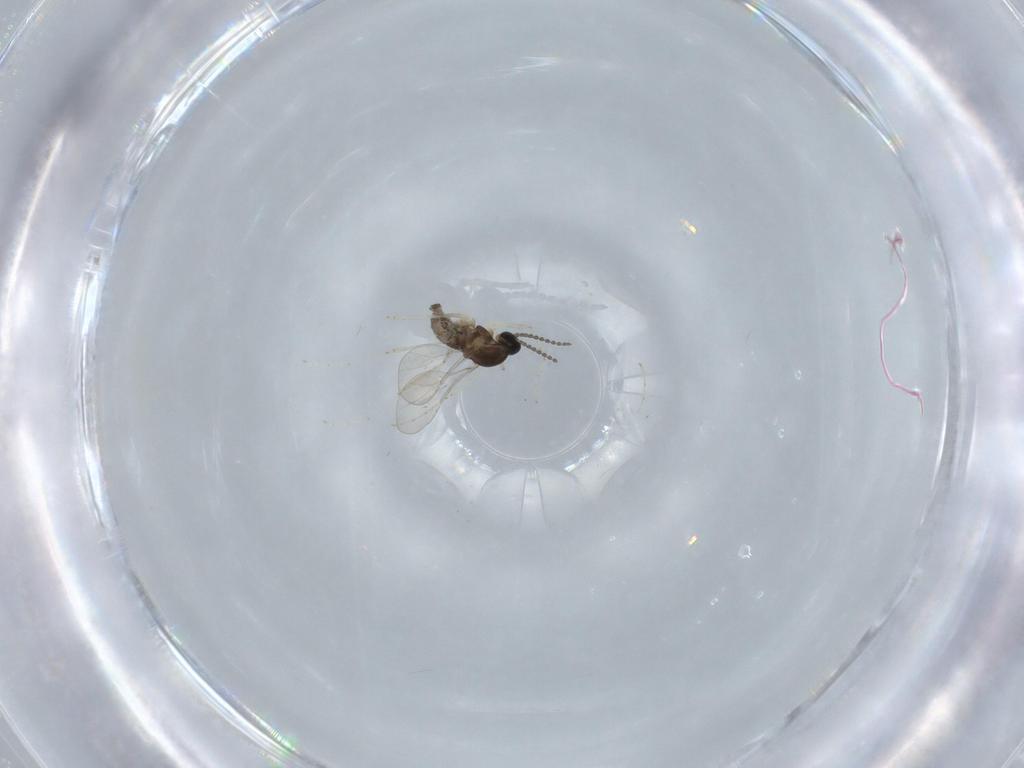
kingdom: Animalia
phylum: Arthropoda
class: Insecta
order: Diptera
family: Cecidomyiidae
